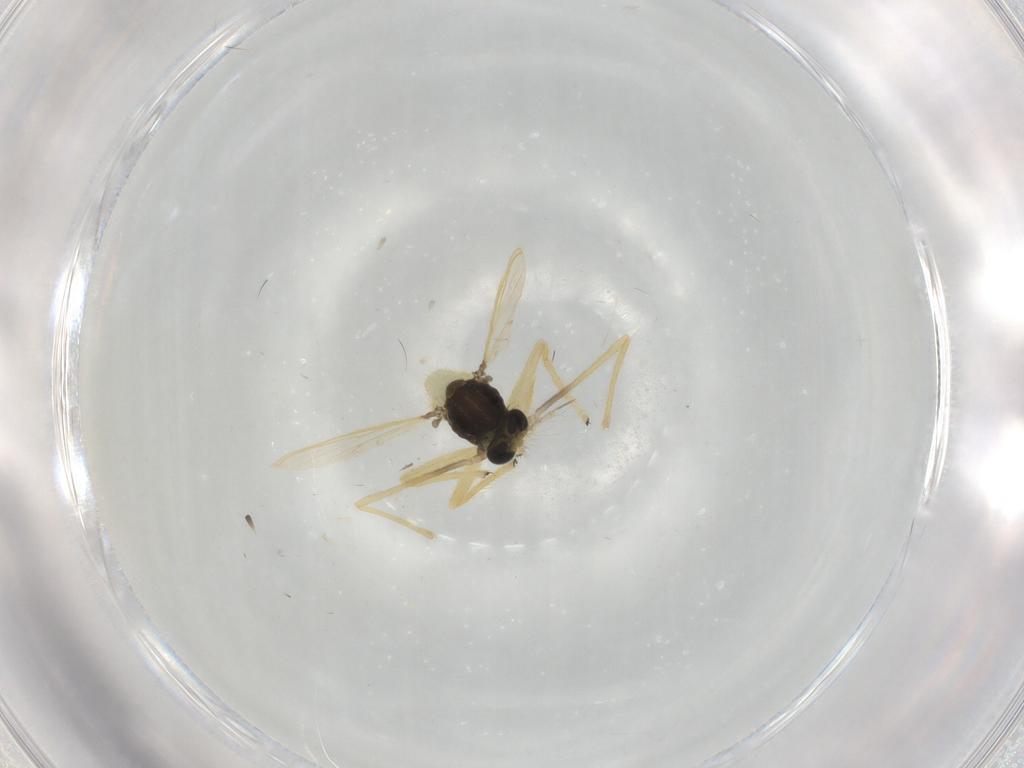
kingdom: Animalia
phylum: Arthropoda
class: Insecta
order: Diptera
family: Chironomidae
